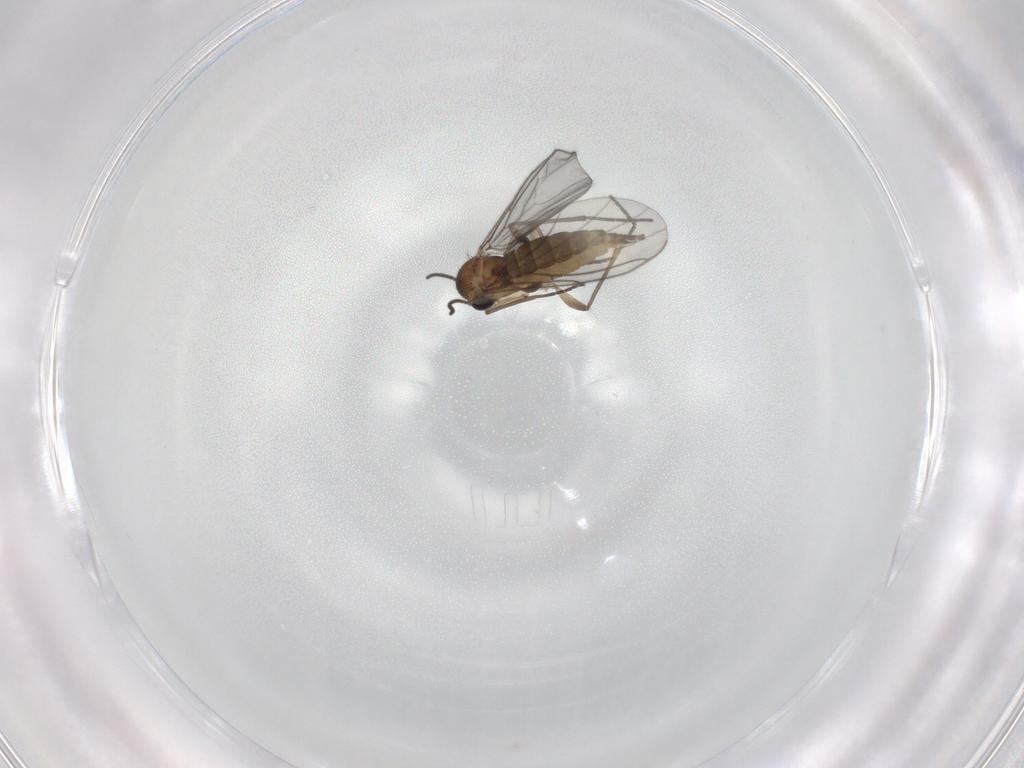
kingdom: Animalia
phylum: Arthropoda
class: Insecta
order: Diptera
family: Sciaridae
